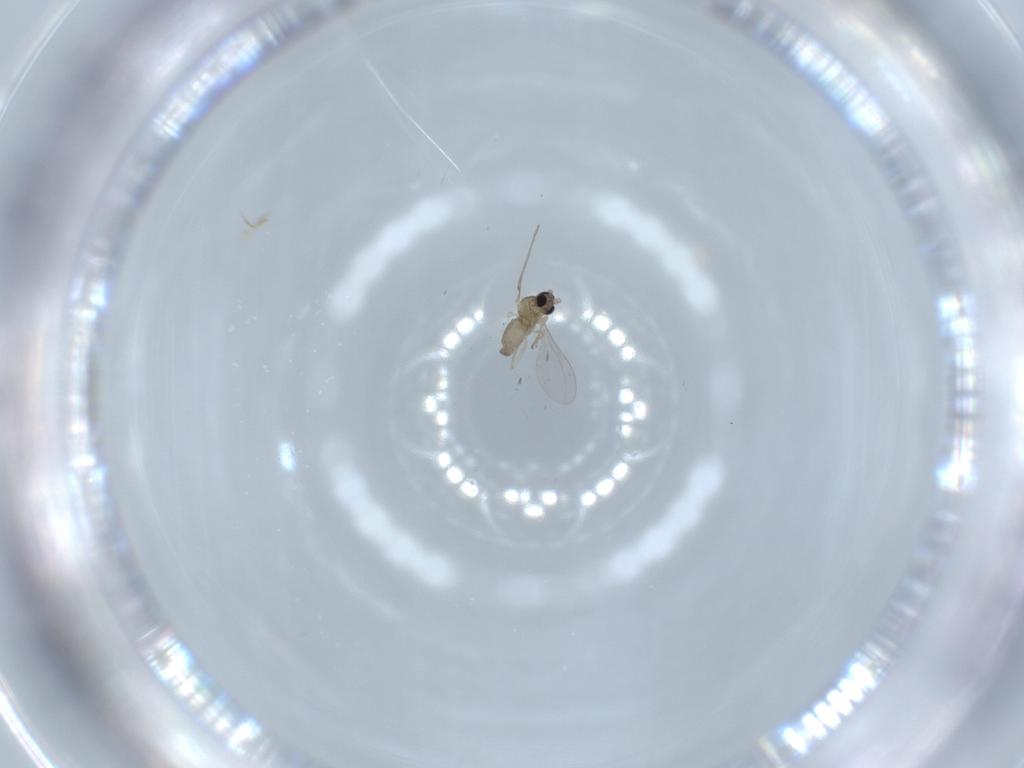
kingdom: Animalia
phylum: Arthropoda
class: Insecta
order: Diptera
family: Cecidomyiidae
